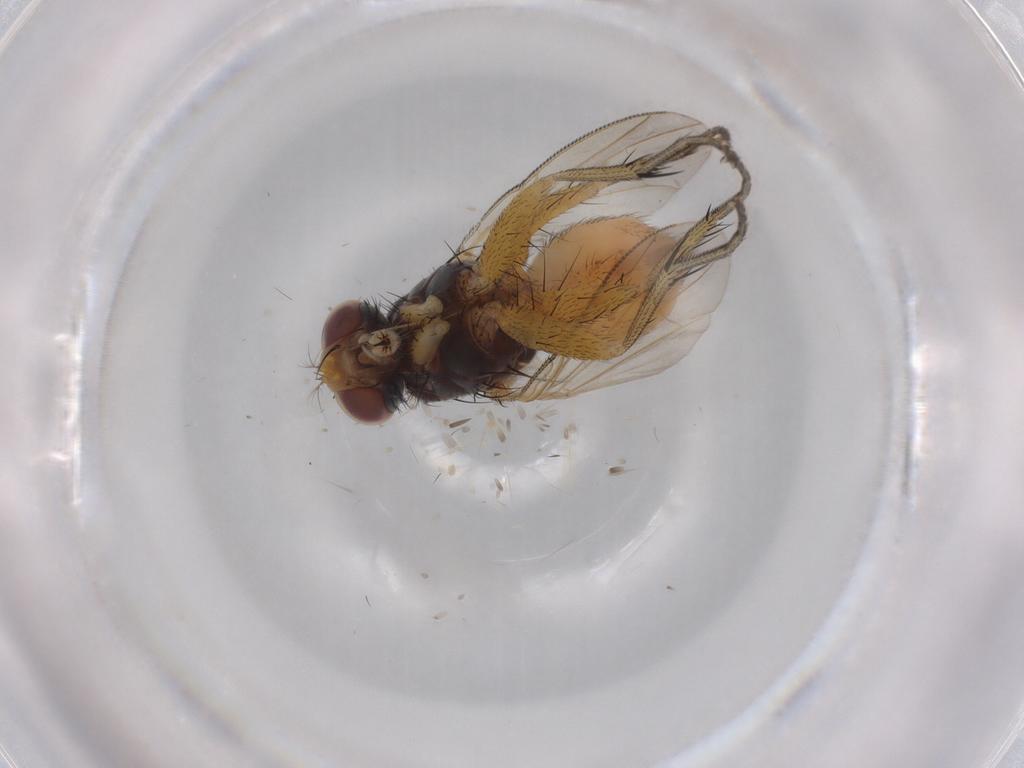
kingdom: Animalia
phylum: Arthropoda
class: Insecta
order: Diptera
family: Muscidae
